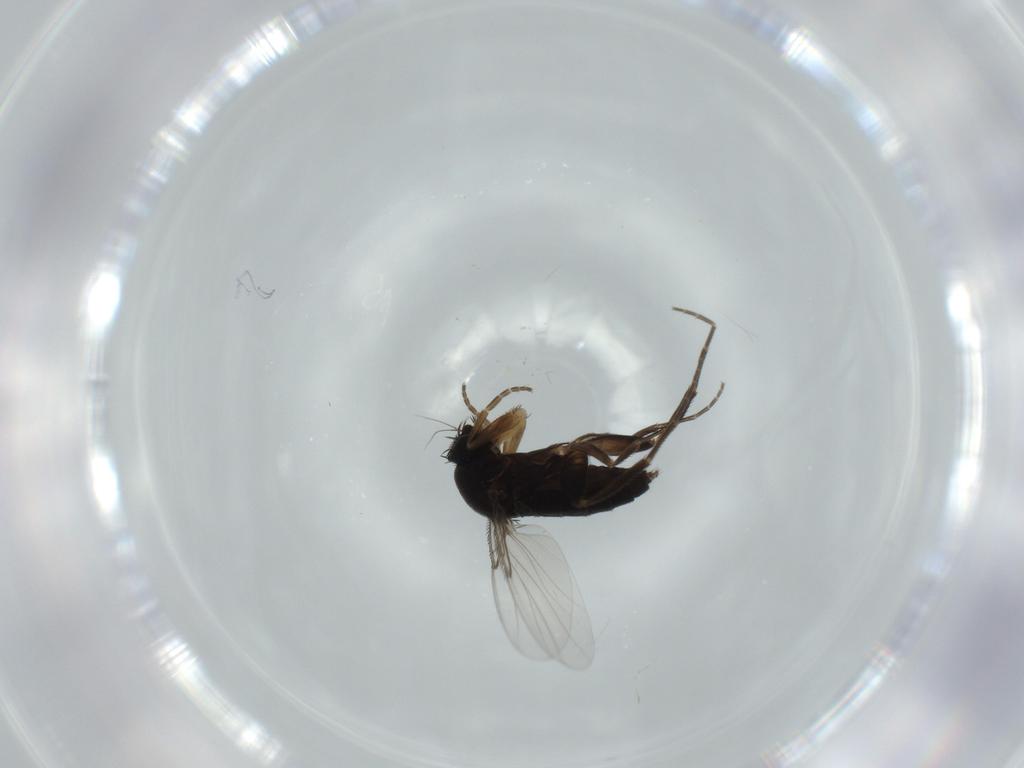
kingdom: Animalia
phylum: Arthropoda
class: Insecta
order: Diptera
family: Phoridae
